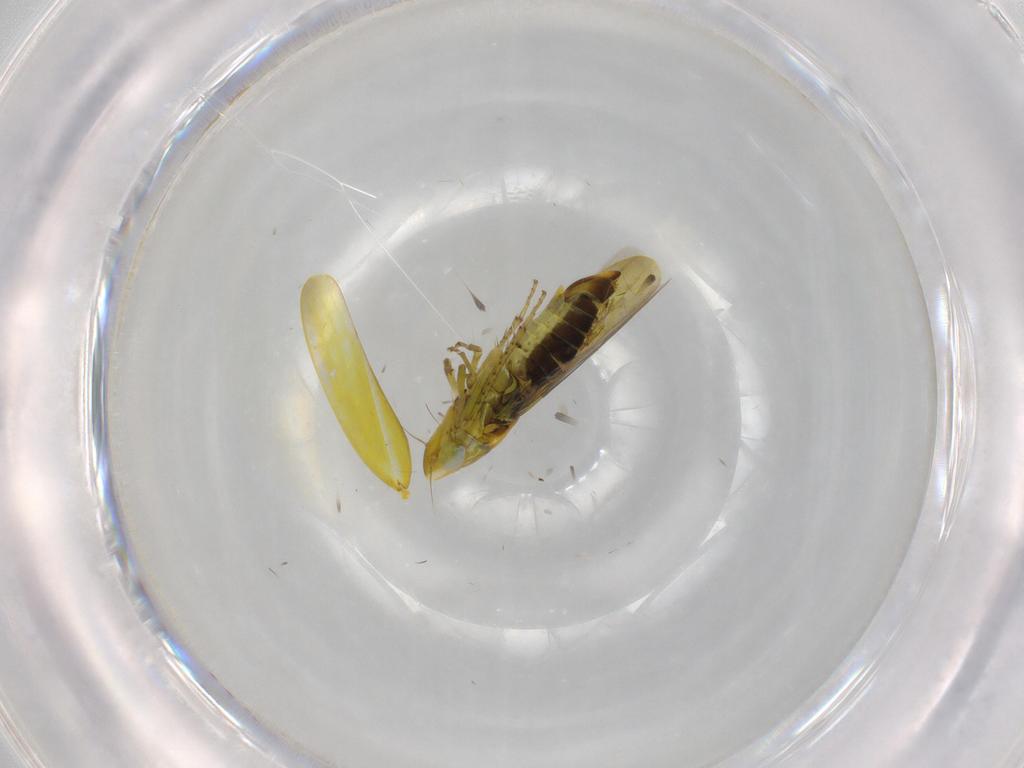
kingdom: Animalia
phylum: Arthropoda
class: Insecta
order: Hemiptera
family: Cicadellidae
